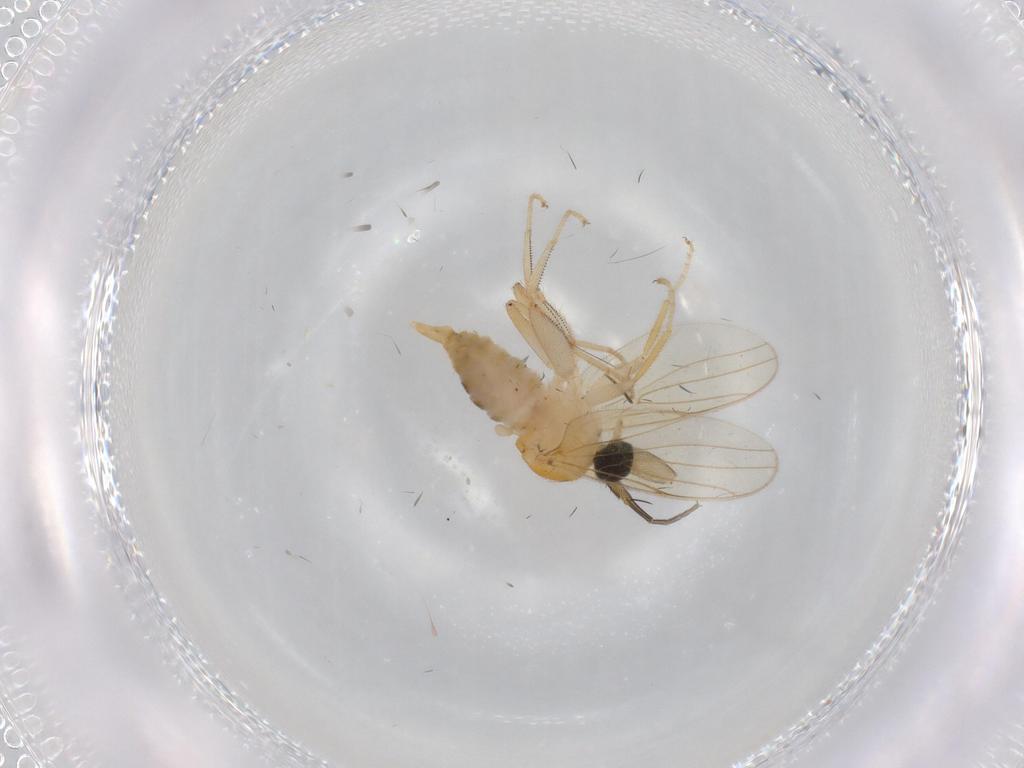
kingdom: Animalia
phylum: Arthropoda
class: Insecta
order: Diptera
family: Phoridae
